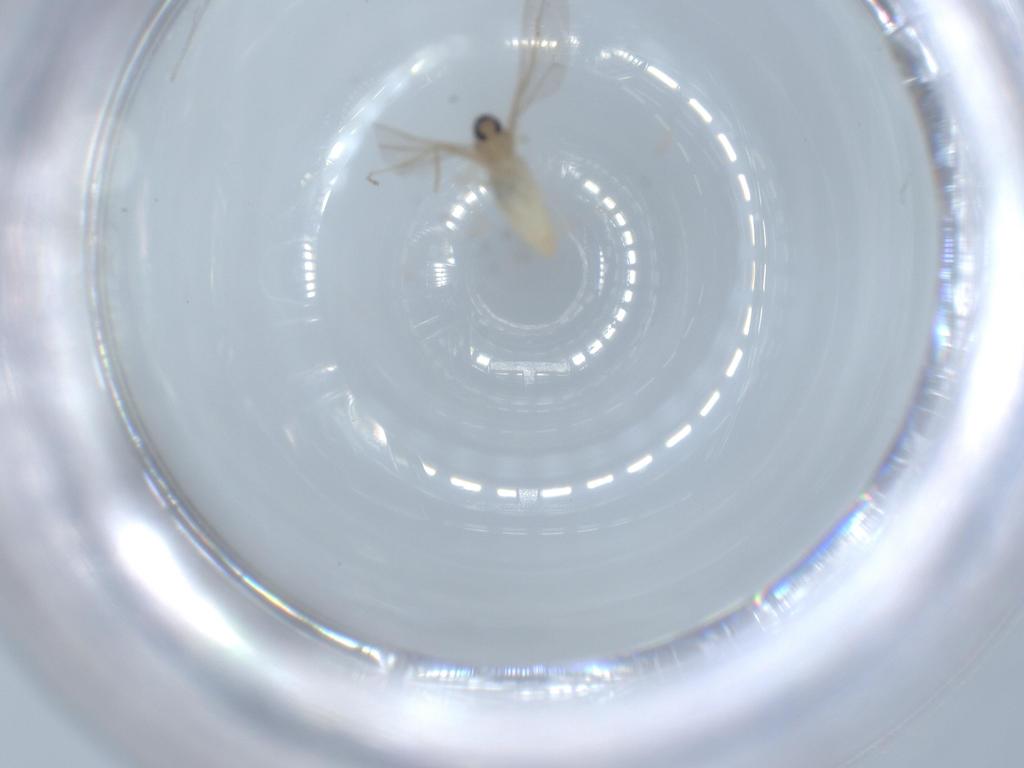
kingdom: Animalia
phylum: Arthropoda
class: Insecta
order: Diptera
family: Cecidomyiidae
